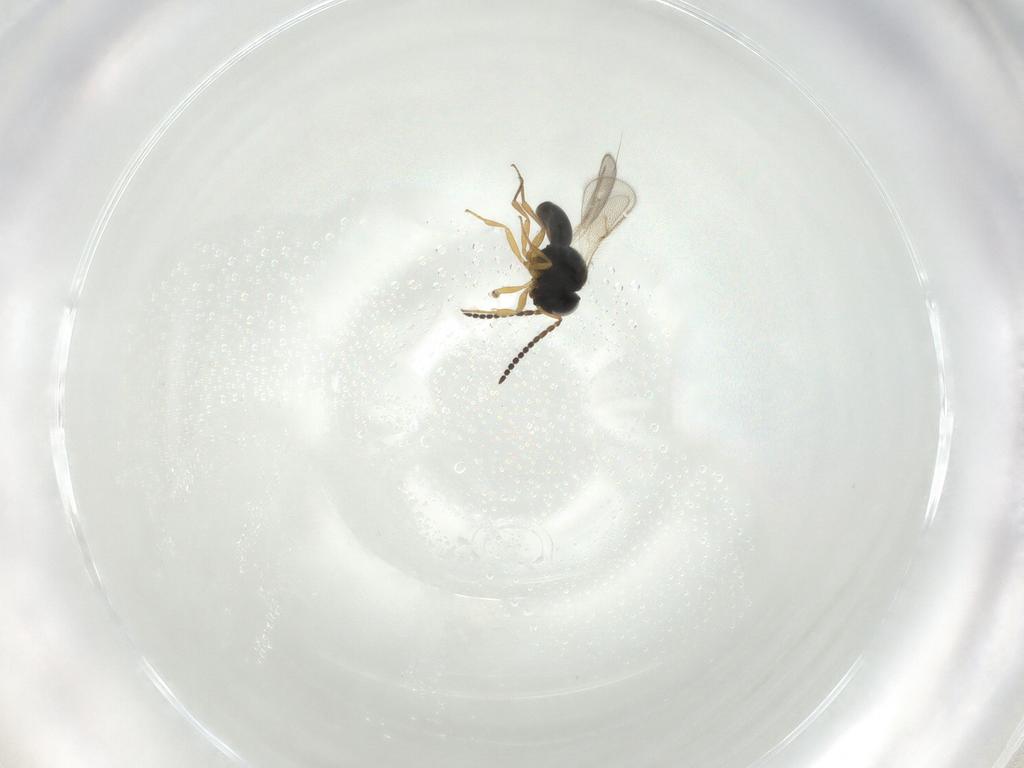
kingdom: Animalia
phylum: Arthropoda
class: Insecta
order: Hymenoptera
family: Scelionidae
